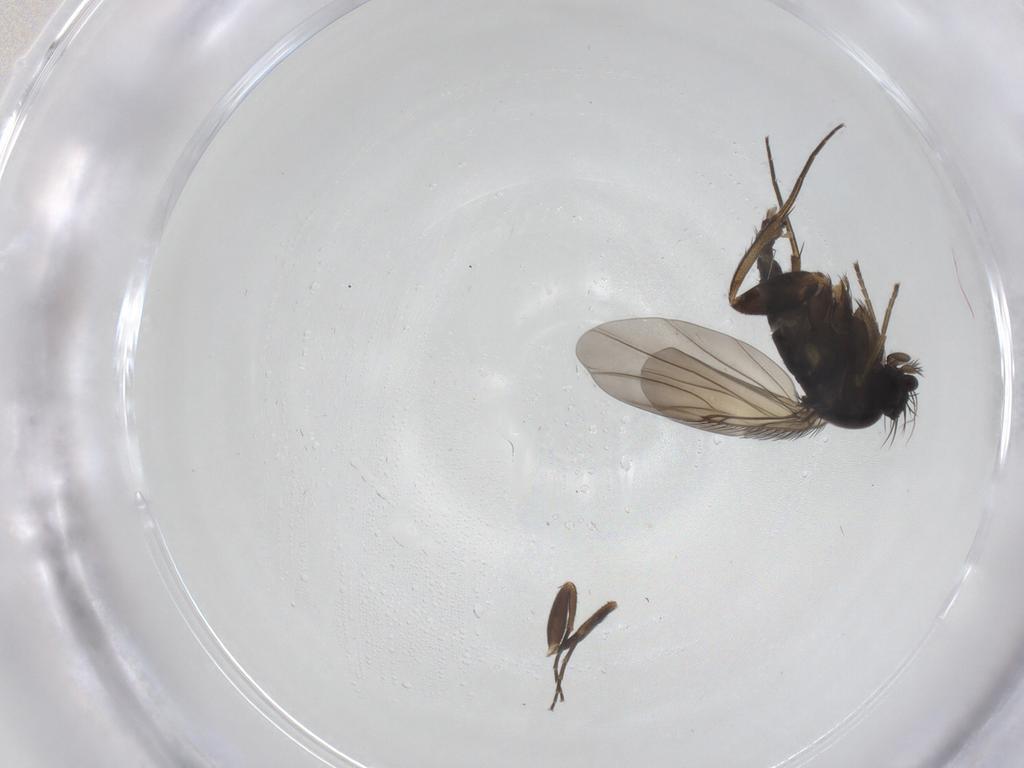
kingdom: Animalia
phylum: Arthropoda
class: Insecta
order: Diptera
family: Phoridae
